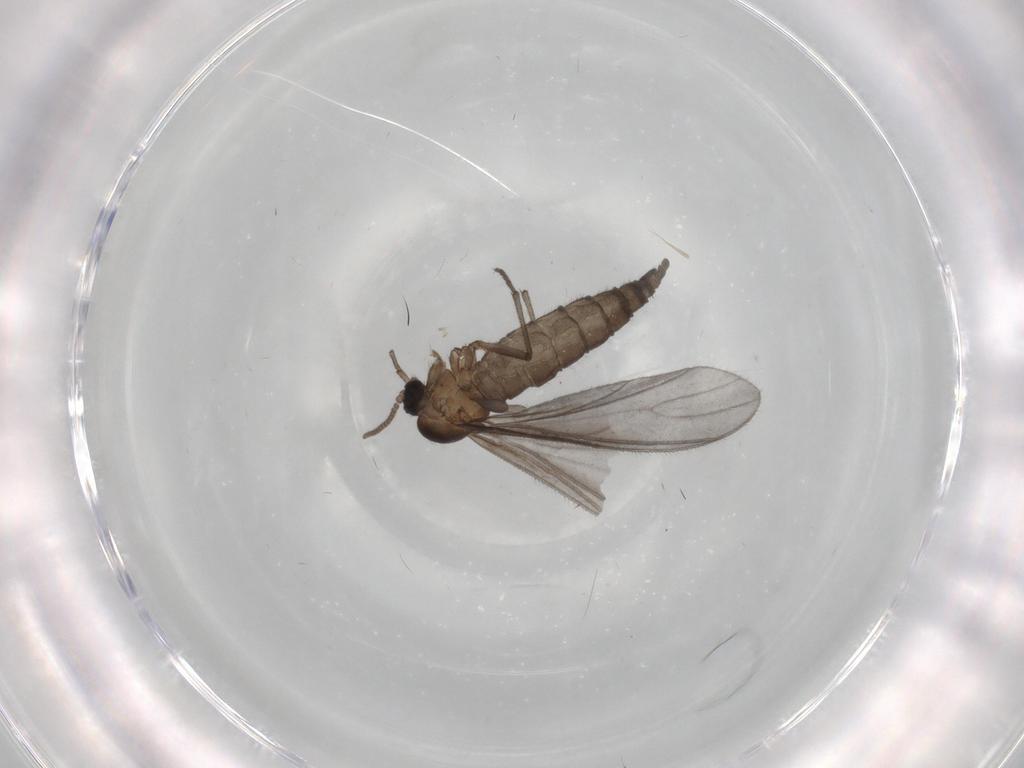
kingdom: Animalia
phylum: Arthropoda
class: Insecta
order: Diptera
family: Sciaridae
